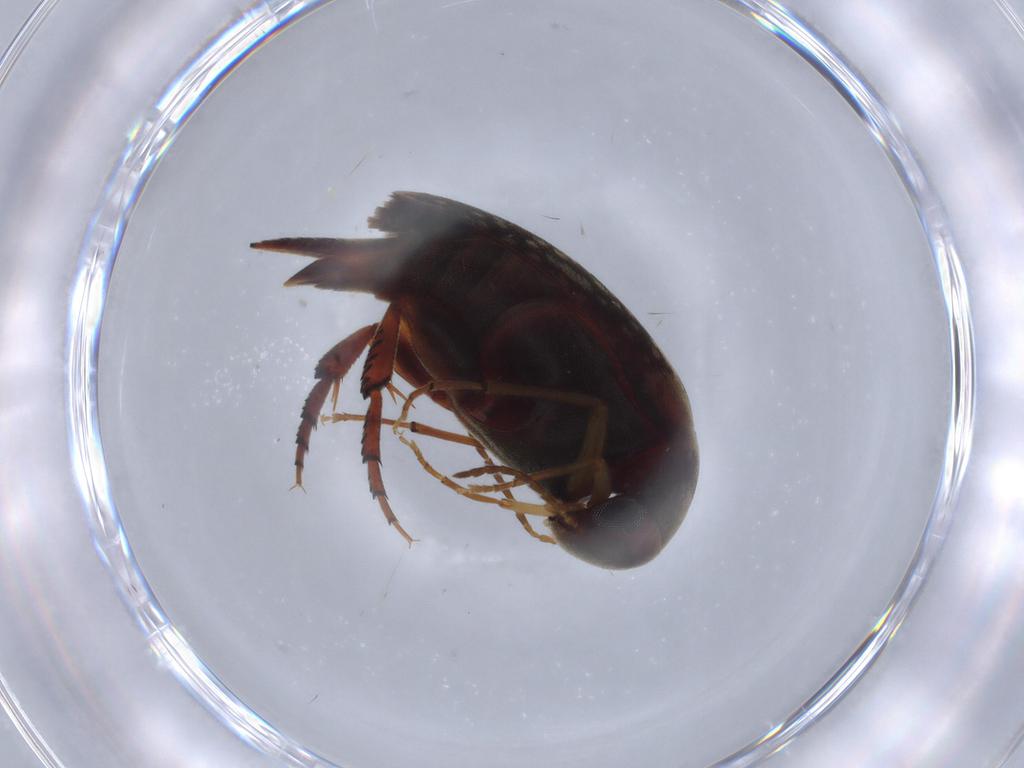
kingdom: Animalia
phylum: Arthropoda
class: Insecta
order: Coleoptera
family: Mordellidae
